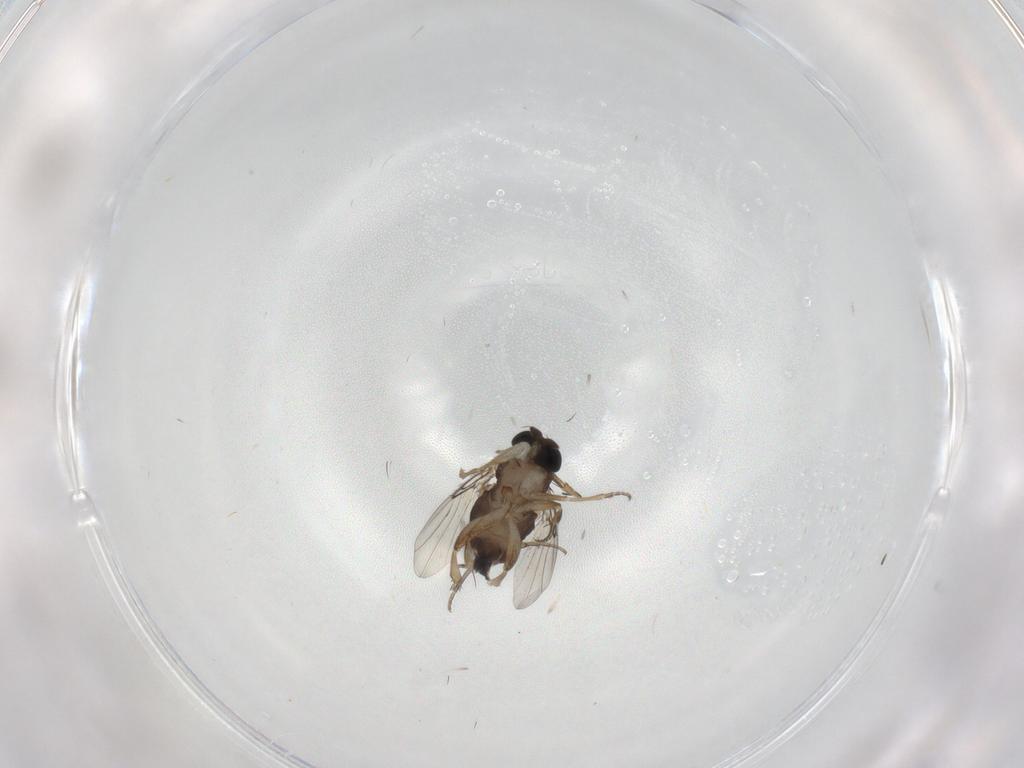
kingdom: Animalia
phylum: Arthropoda
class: Insecta
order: Diptera
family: Phoridae
